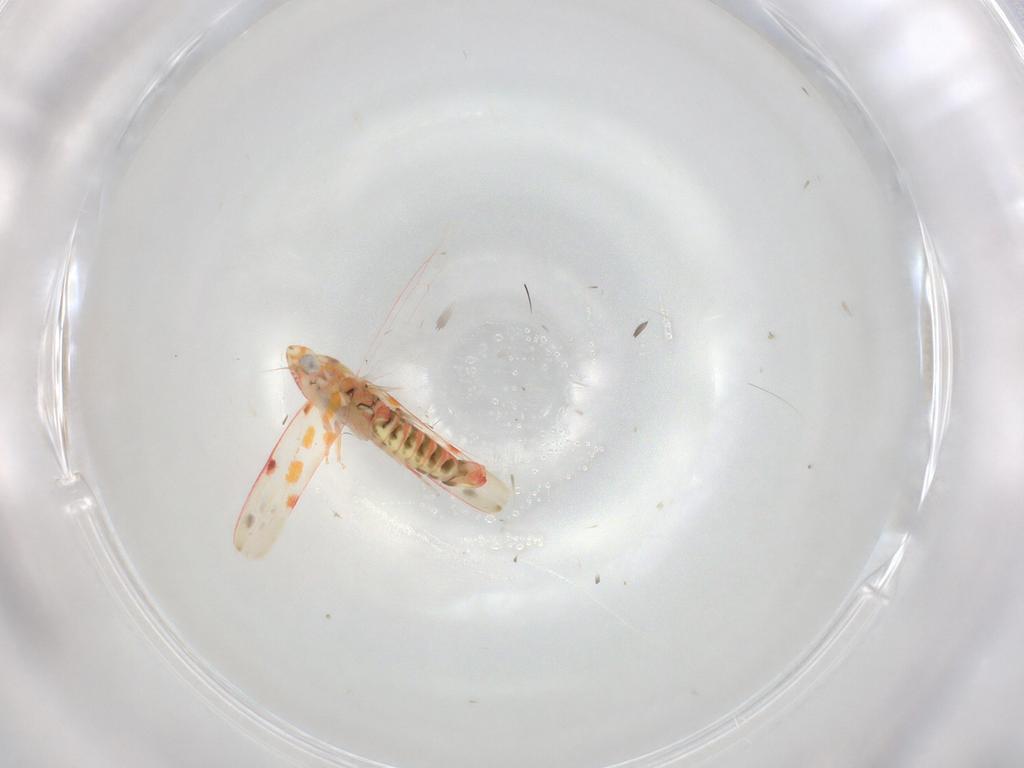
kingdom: Animalia
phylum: Arthropoda
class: Insecta
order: Hemiptera
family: Cicadellidae
